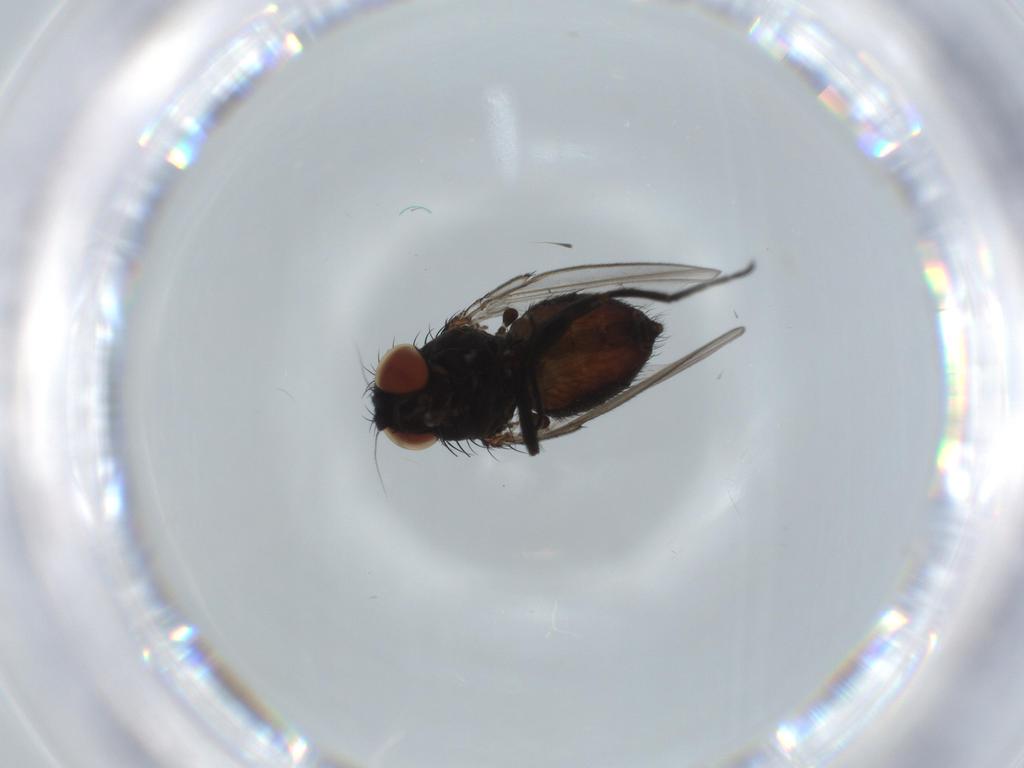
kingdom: Animalia
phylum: Arthropoda
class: Insecta
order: Diptera
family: Milichiidae
